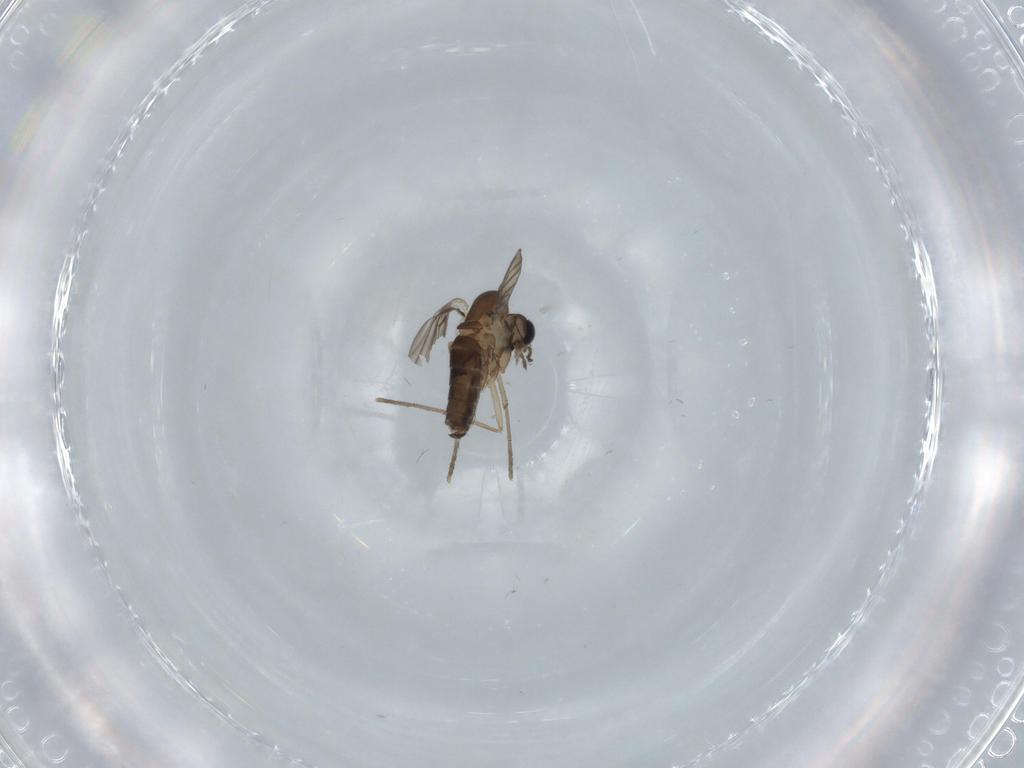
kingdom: Animalia
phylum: Arthropoda
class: Insecta
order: Diptera
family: Psychodidae
